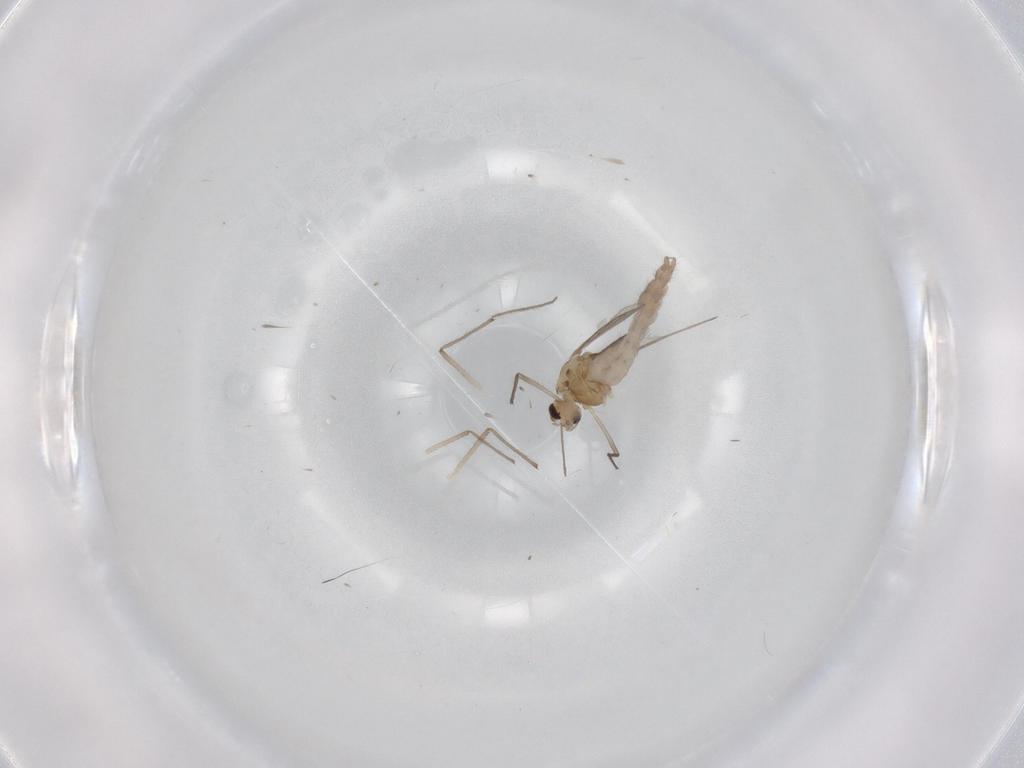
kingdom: Animalia
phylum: Arthropoda
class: Insecta
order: Diptera
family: Chironomidae
